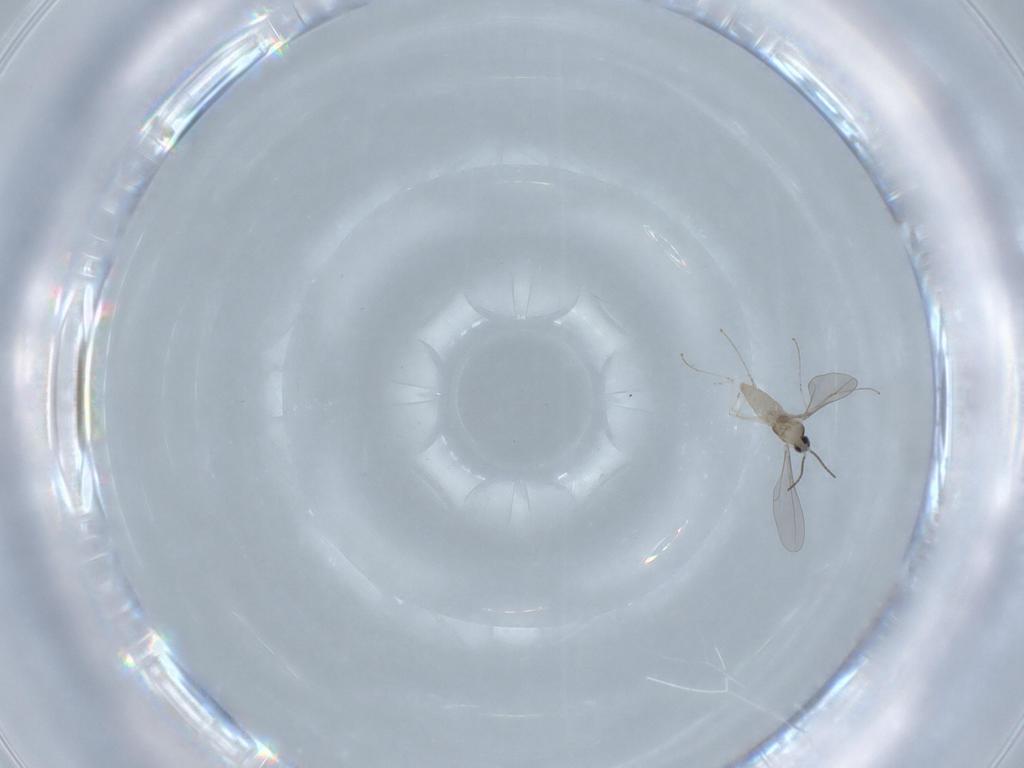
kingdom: Animalia
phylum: Arthropoda
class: Insecta
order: Diptera
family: Cecidomyiidae
